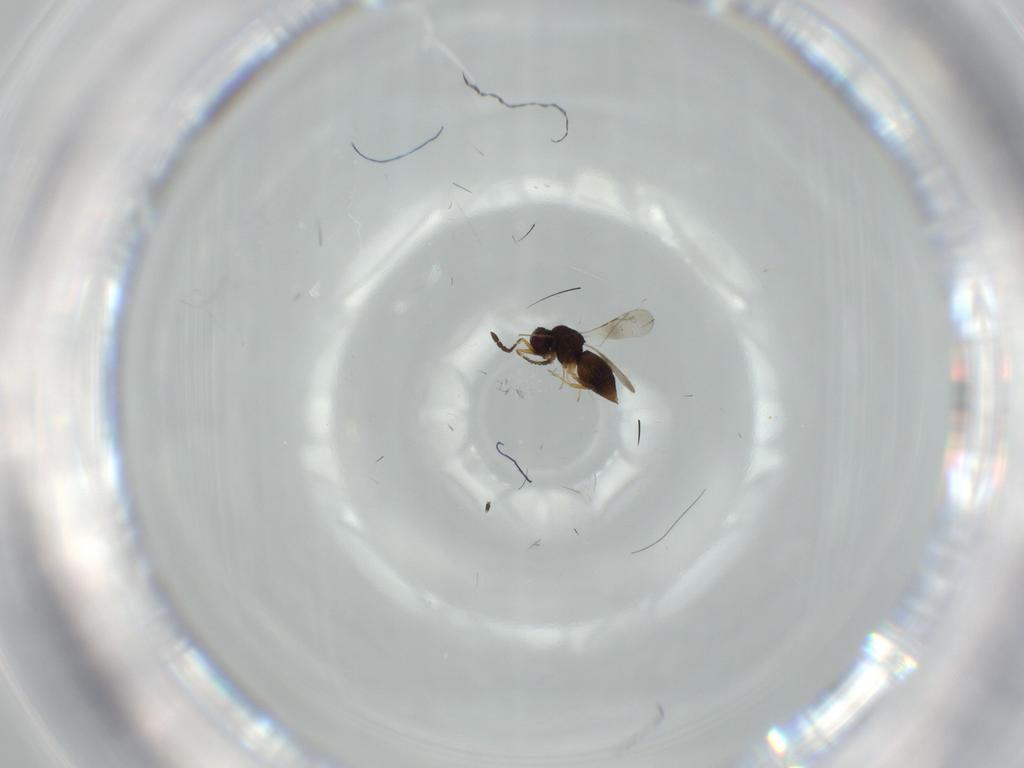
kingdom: Animalia
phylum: Arthropoda
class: Insecta
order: Hymenoptera
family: Ceraphronidae
